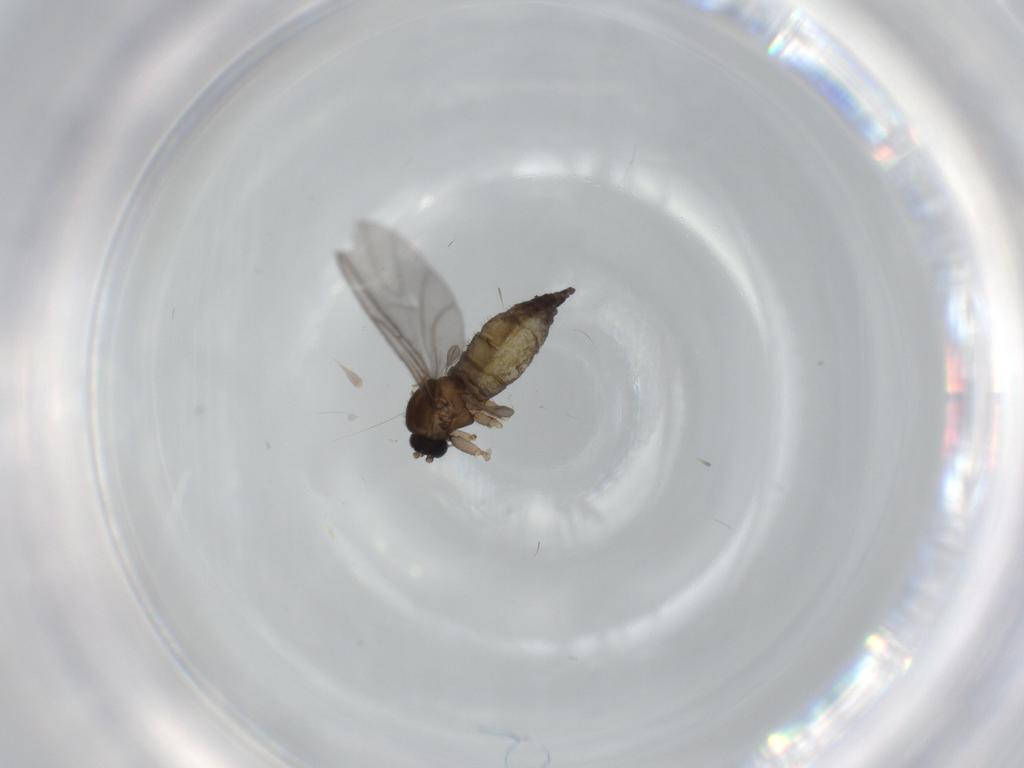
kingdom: Animalia
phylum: Arthropoda
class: Insecta
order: Diptera
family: Sciaridae
